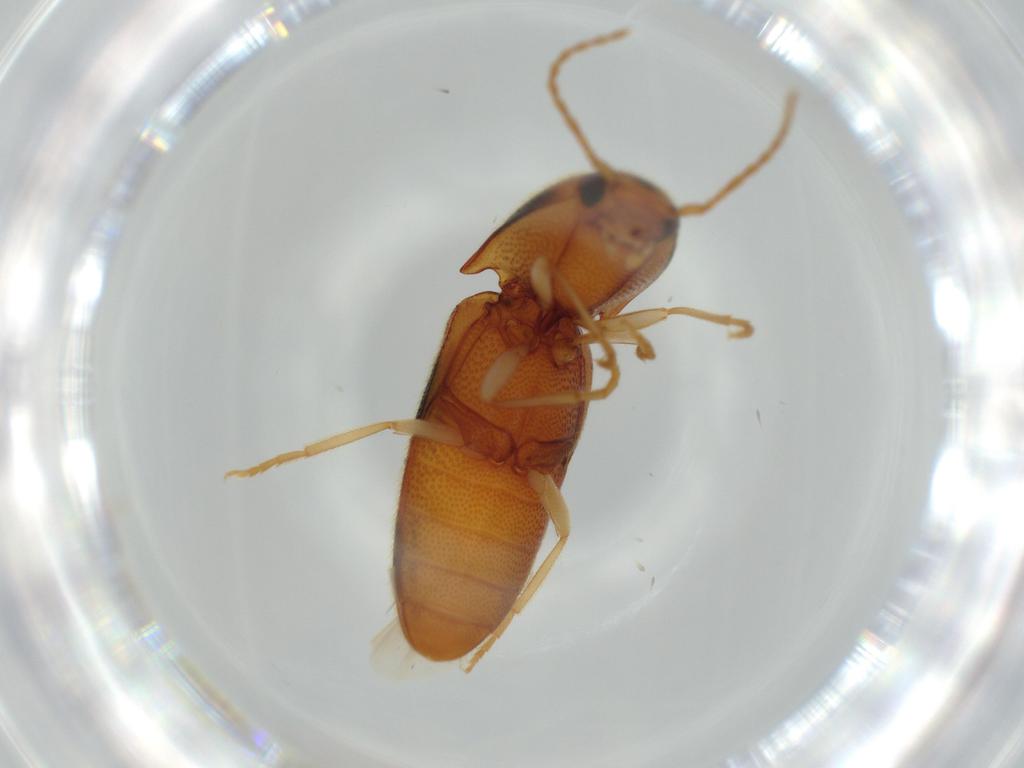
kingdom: Animalia
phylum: Arthropoda
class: Insecta
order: Coleoptera
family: Elateridae
